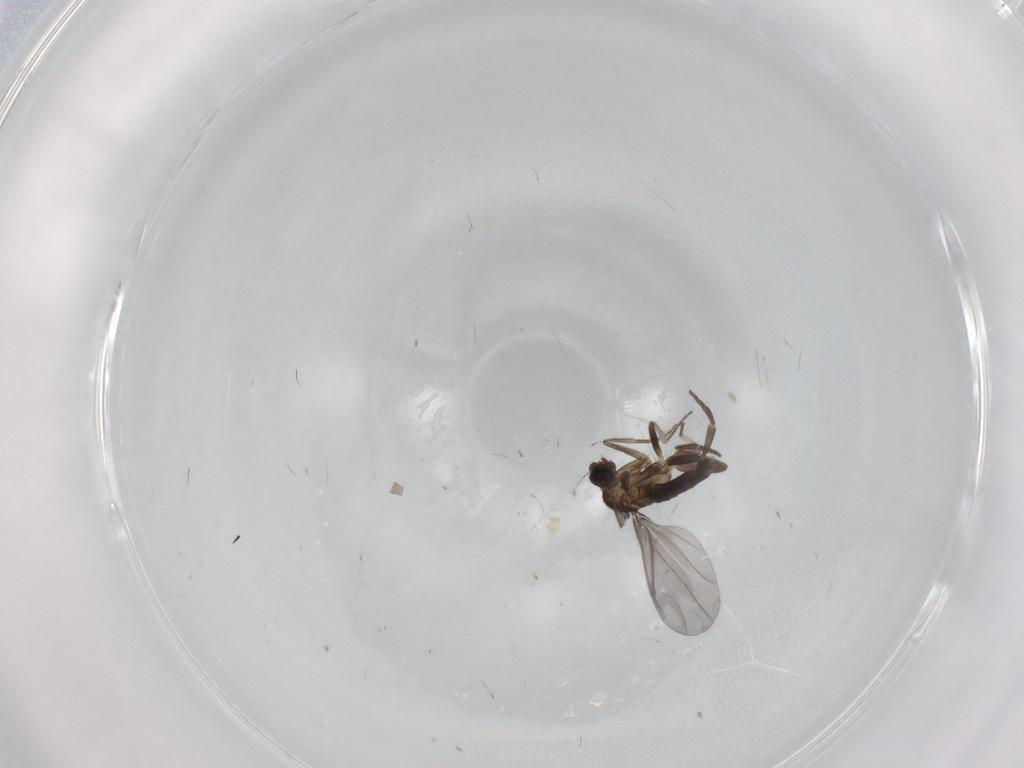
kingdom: Animalia
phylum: Arthropoda
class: Insecta
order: Diptera
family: Phoridae
